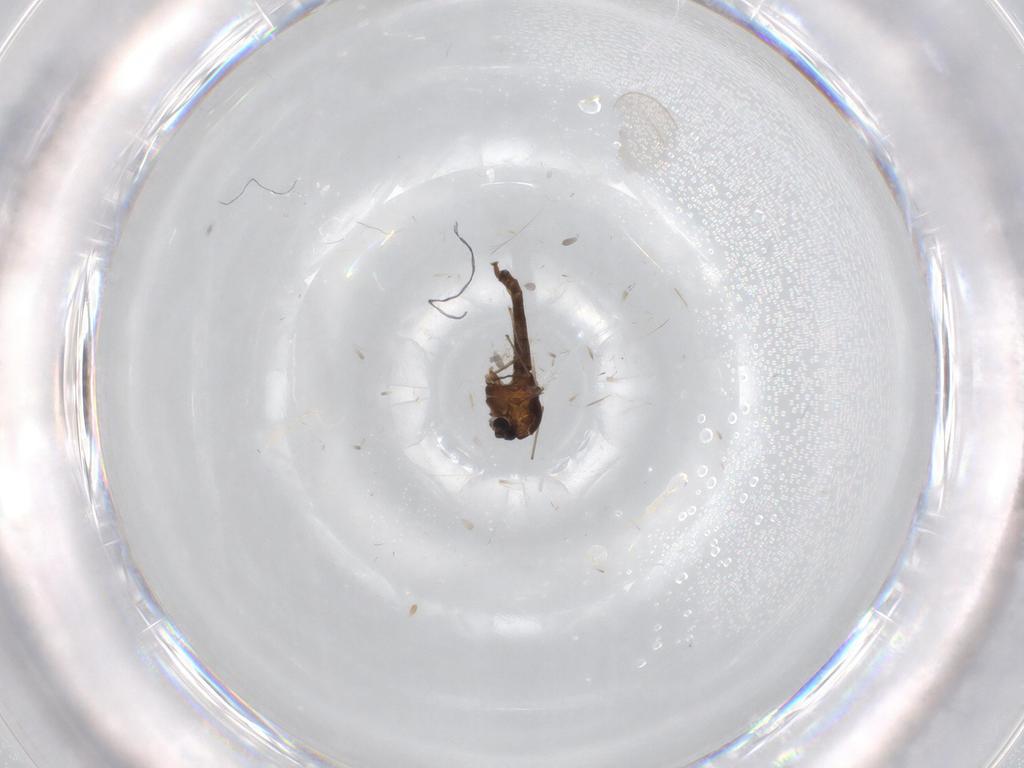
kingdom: Animalia
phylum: Arthropoda
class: Insecta
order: Diptera
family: Chironomidae
